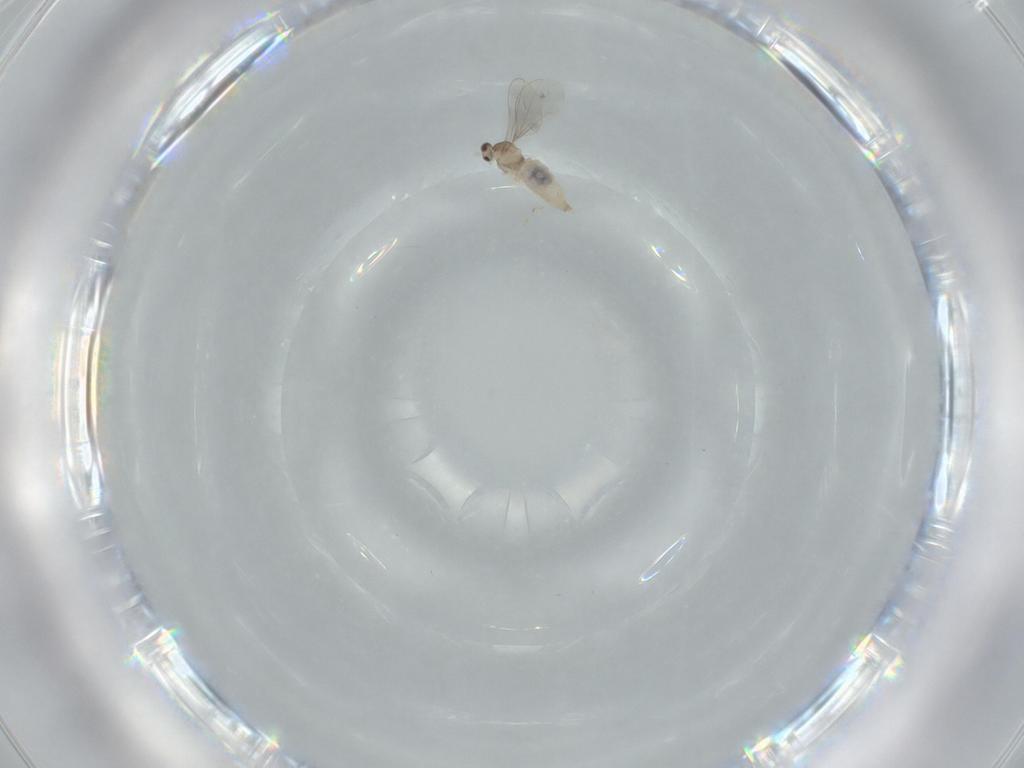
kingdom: Animalia
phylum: Arthropoda
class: Insecta
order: Diptera
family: Cecidomyiidae
